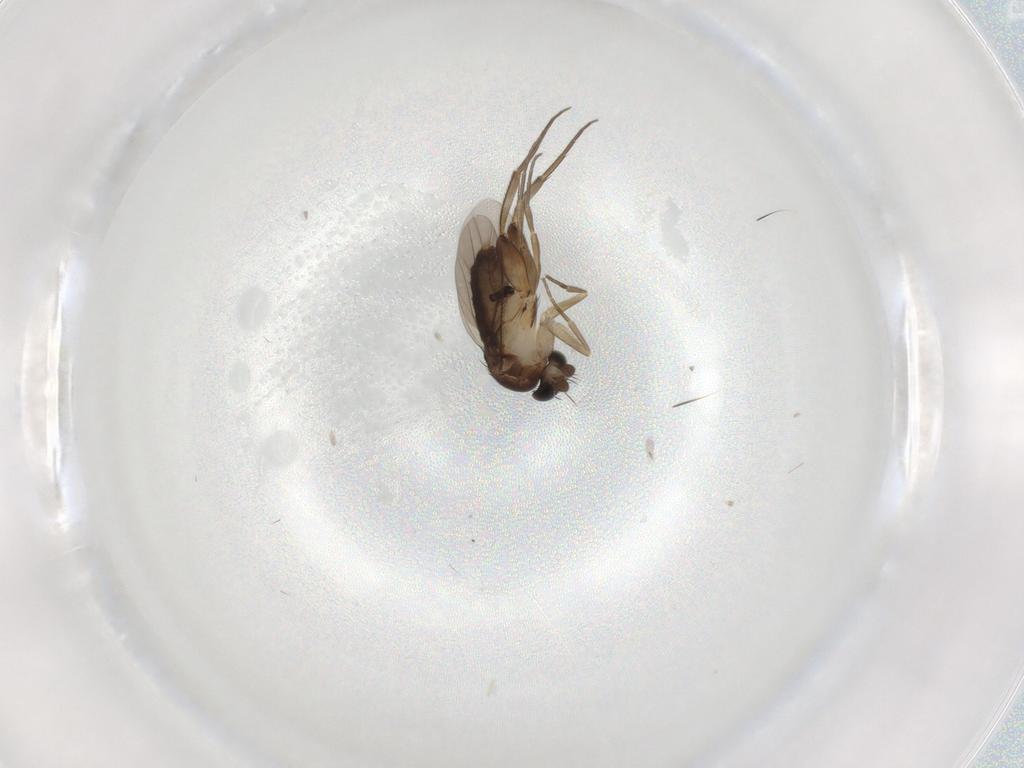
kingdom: Animalia
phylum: Arthropoda
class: Insecta
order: Diptera
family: Phoridae
